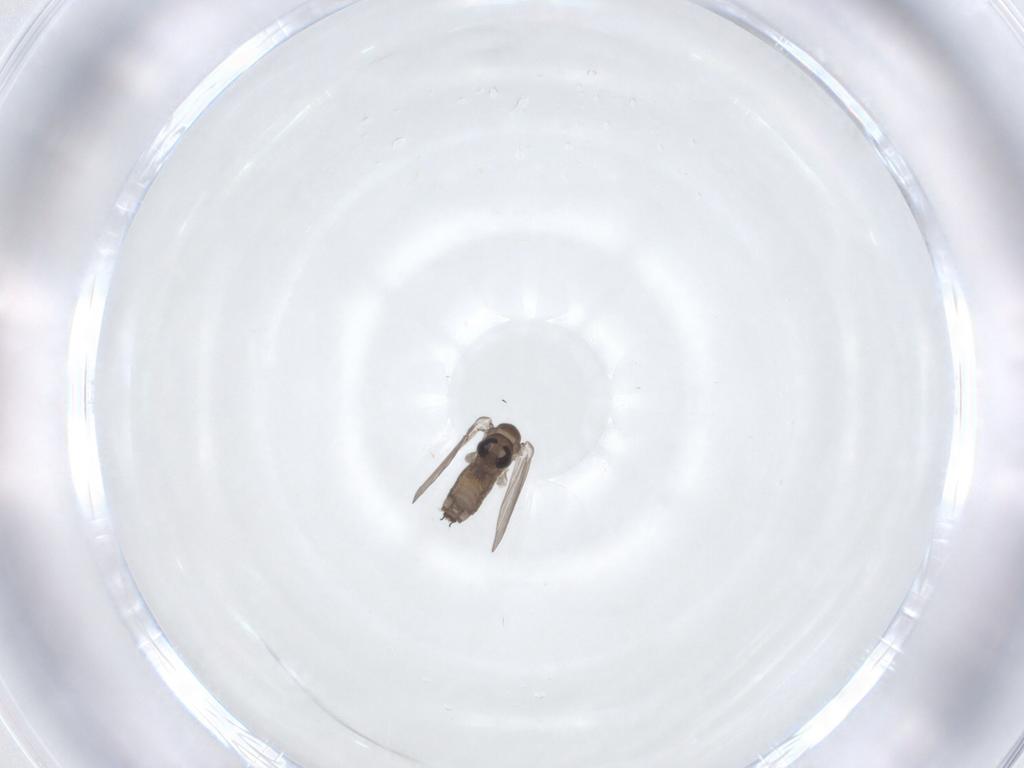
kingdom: Animalia
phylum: Arthropoda
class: Insecta
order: Diptera
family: Psychodidae
